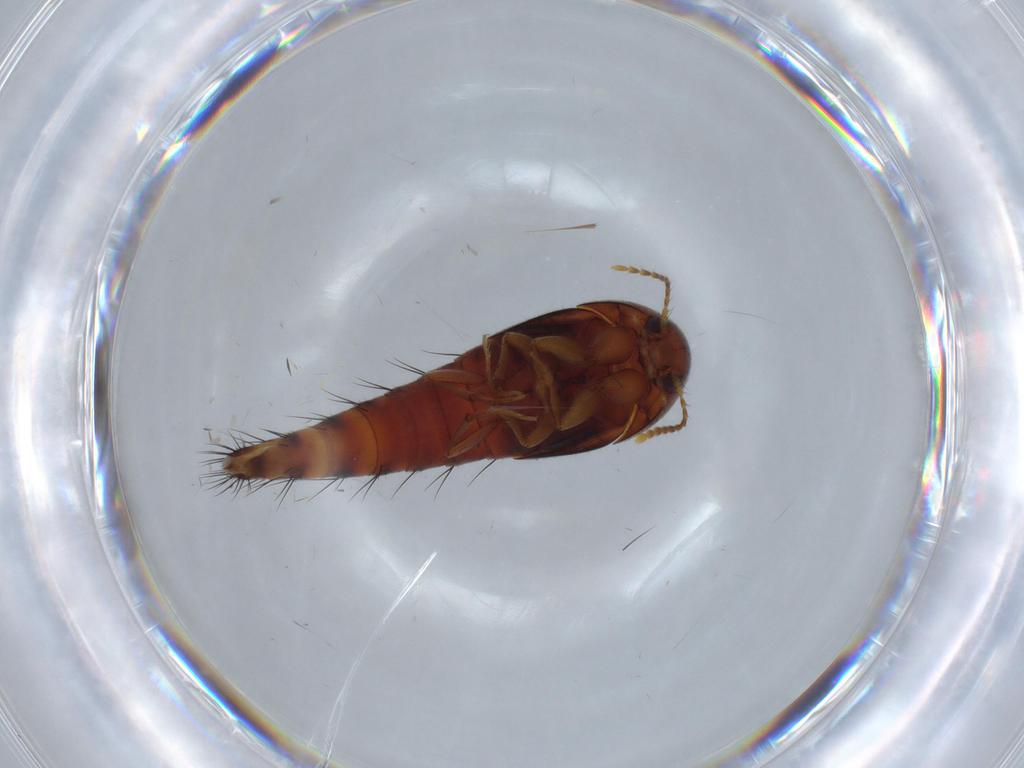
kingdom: Animalia
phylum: Arthropoda
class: Insecta
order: Coleoptera
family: Staphylinidae
